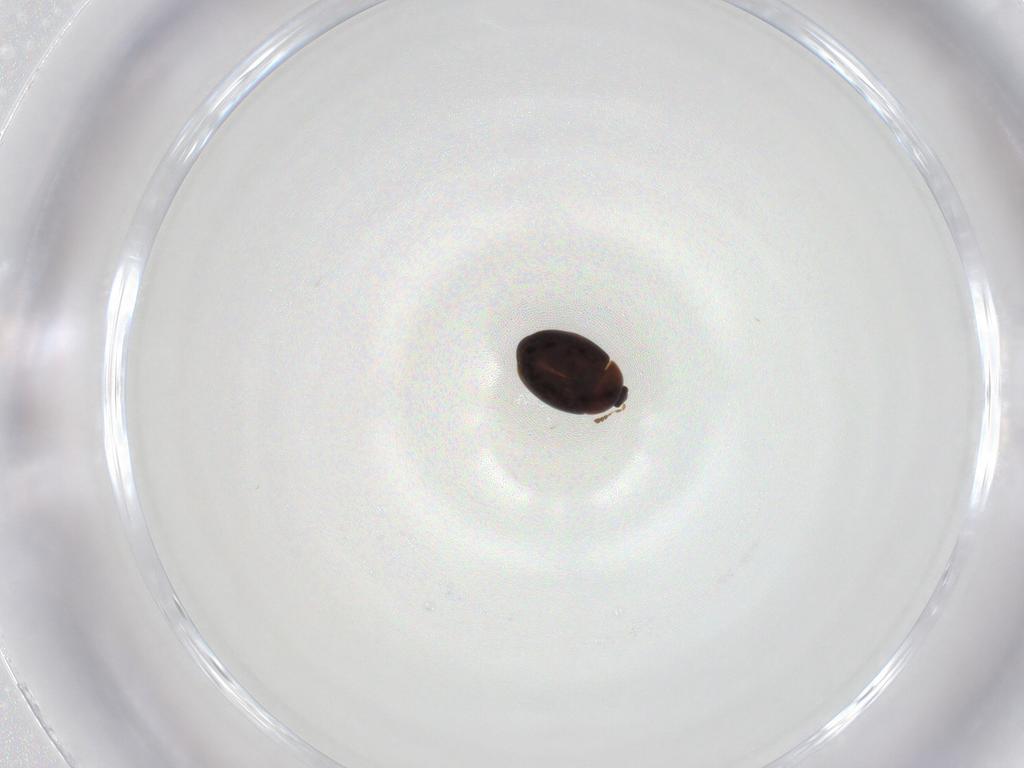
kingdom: Animalia
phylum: Arthropoda
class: Insecta
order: Coleoptera
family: Corylophidae
